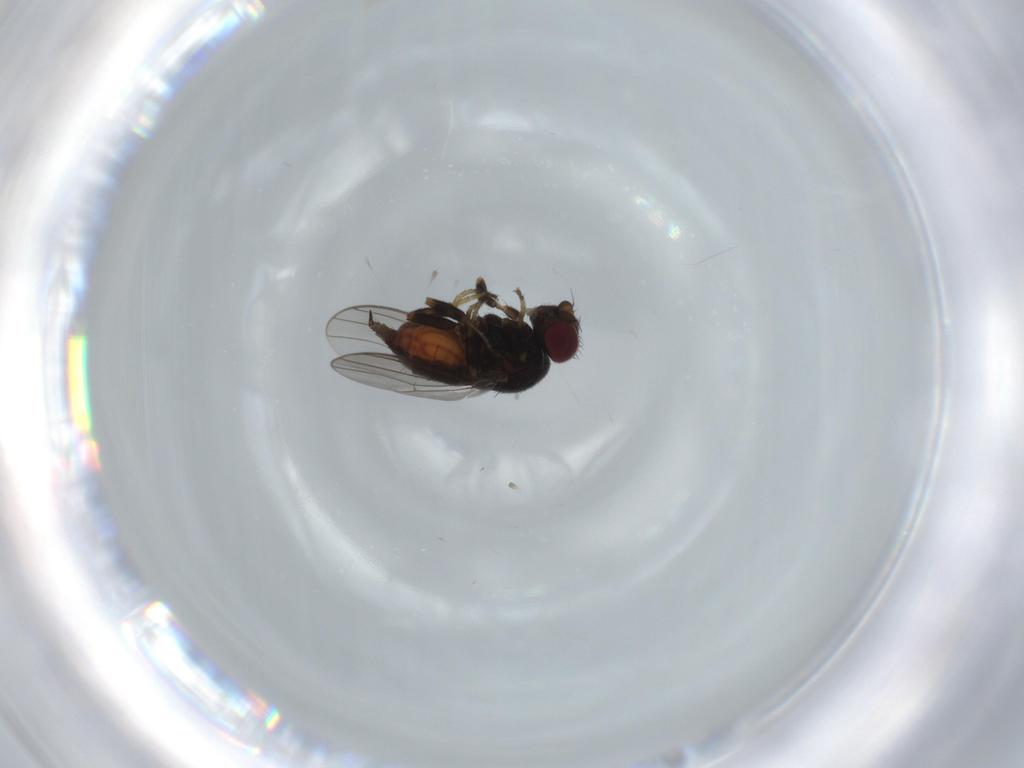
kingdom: Animalia
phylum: Arthropoda
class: Insecta
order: Diptera
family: Chloropidae
